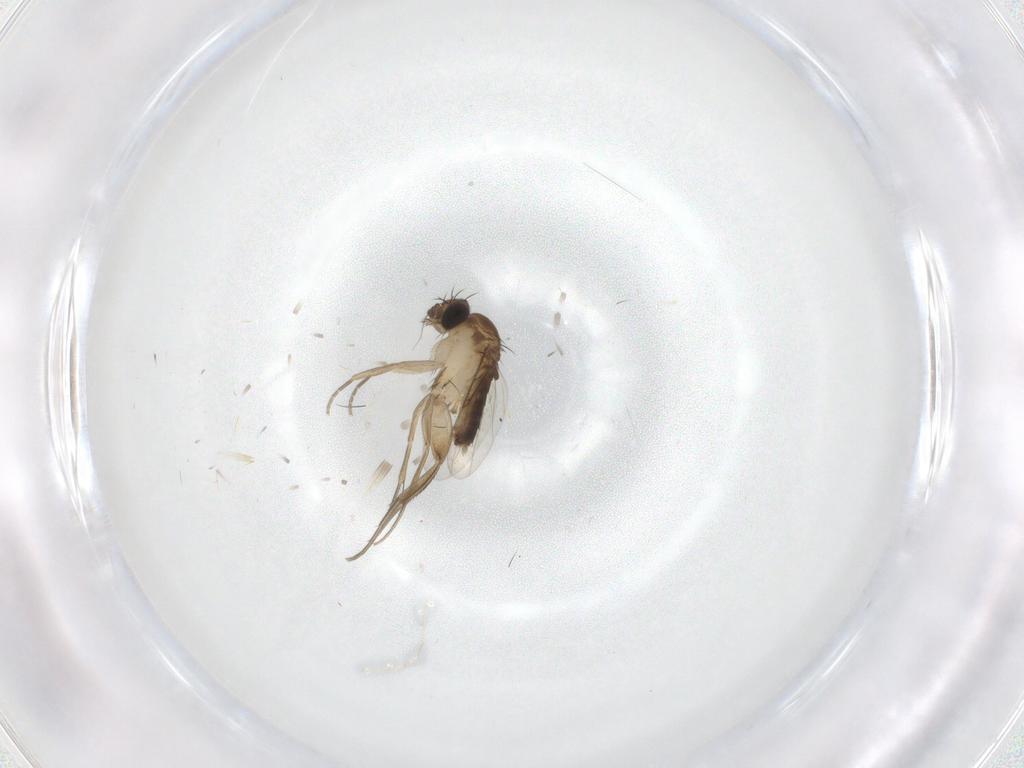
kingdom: Animalia
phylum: Arthropoda
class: Insecta
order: Diptera
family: Phoridae
